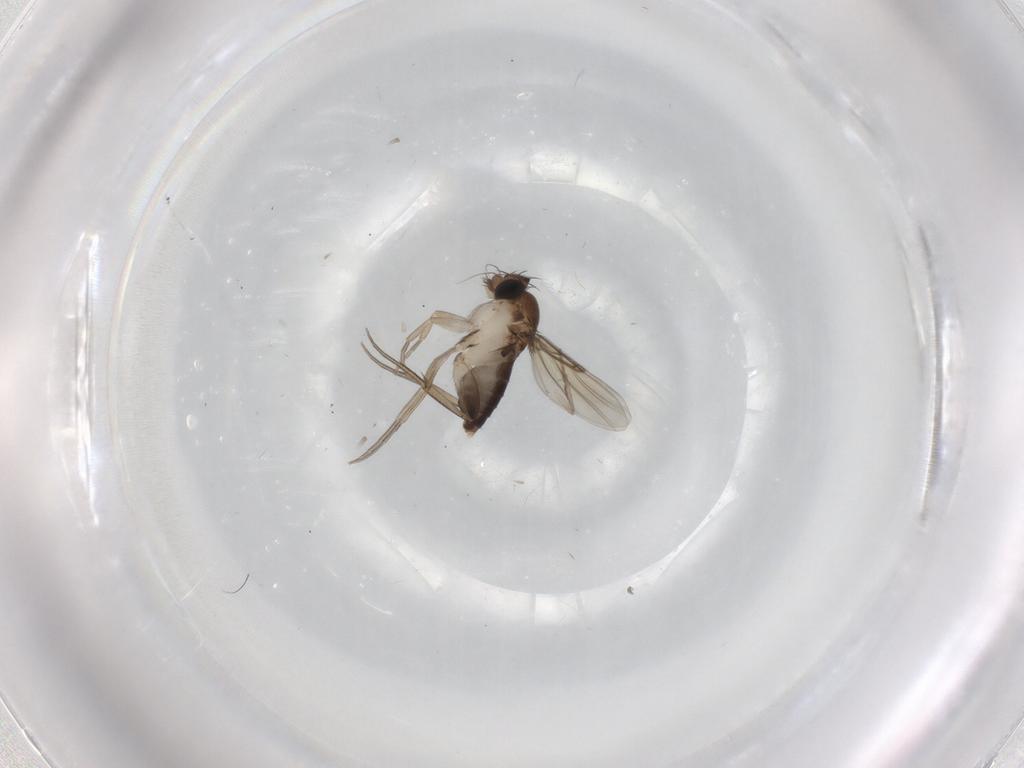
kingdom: Animalia
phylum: Arthropoda
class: Insecta
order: Diptera
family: Phoridae
